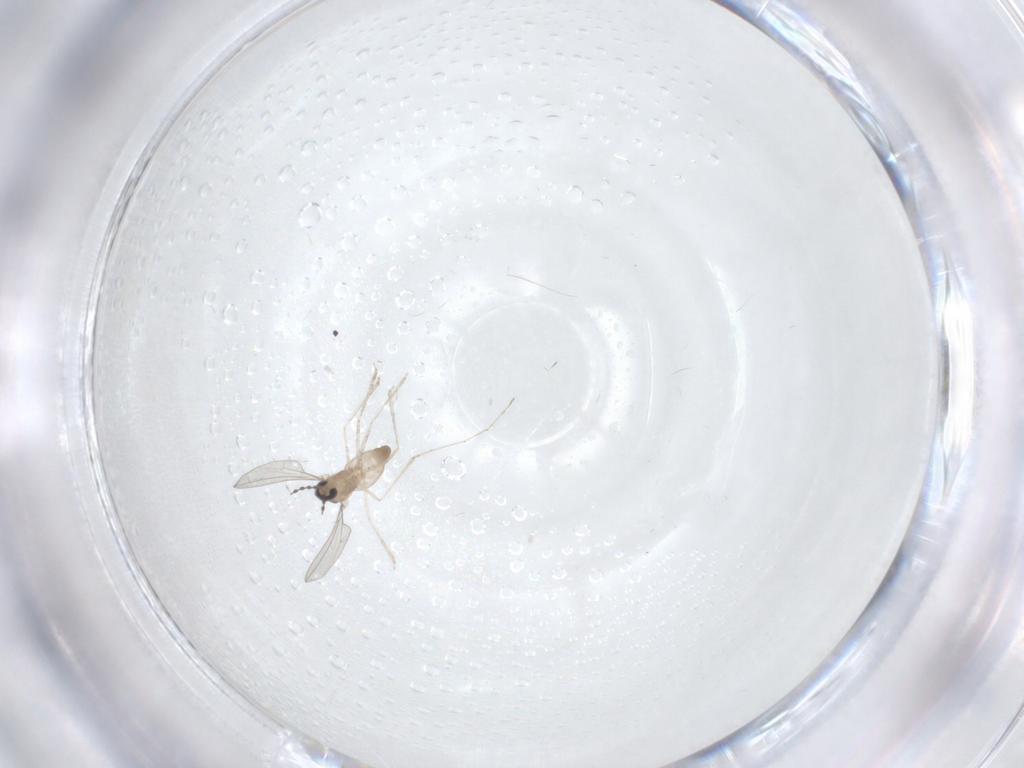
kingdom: Animalia
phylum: Arthropoda
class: Insecta
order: Diptera
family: Cecidomyiidae
